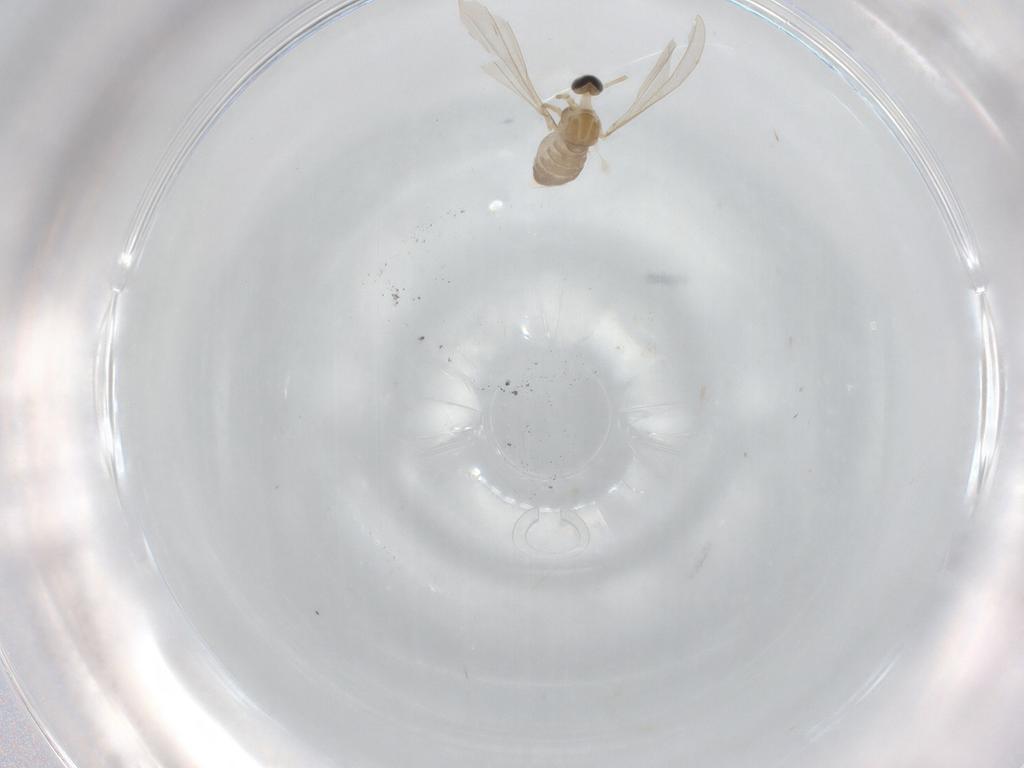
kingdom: Animalia
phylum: Arthropoda
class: Insecta
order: Diptera
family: Cecidomyiidae
